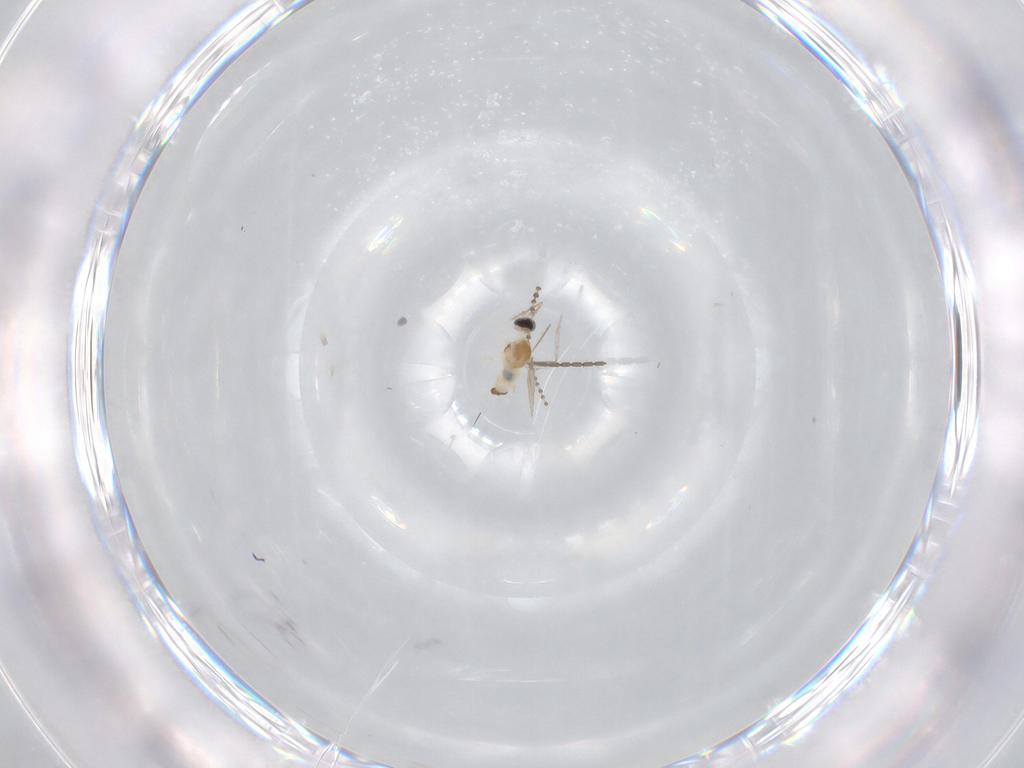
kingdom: Animalia
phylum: Arthropoda
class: Insecta
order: Diptera
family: Cecidomyiidae
